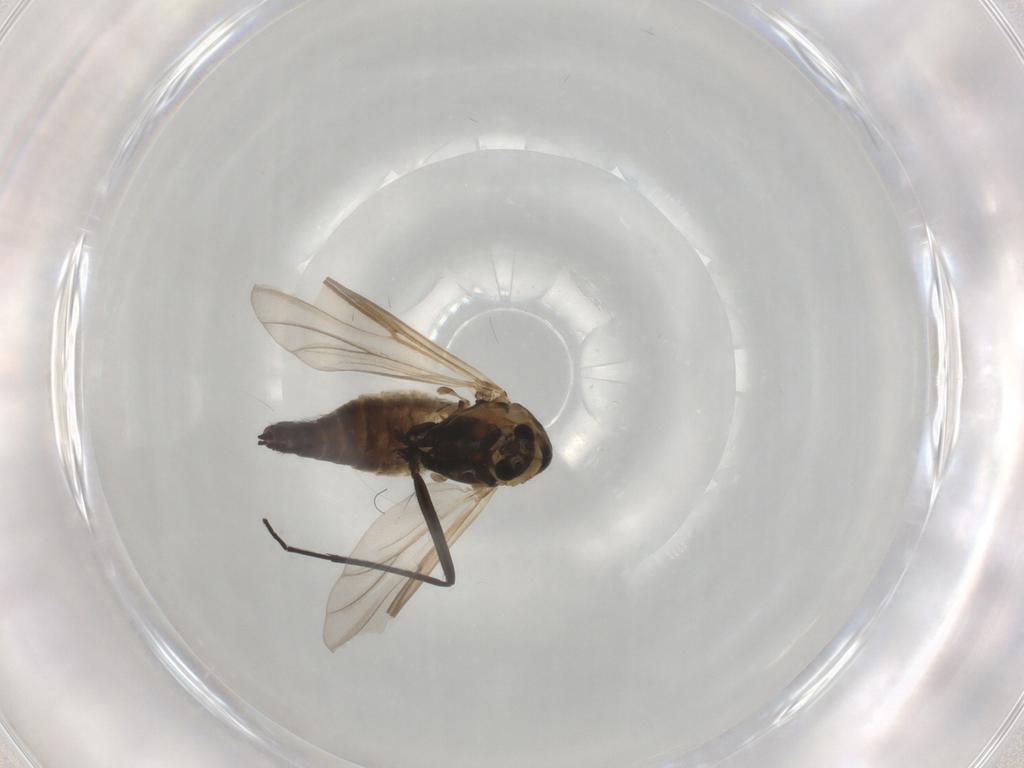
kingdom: Animalia
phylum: Arthropoda
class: Insecta
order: Diptera
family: Chironomidae
